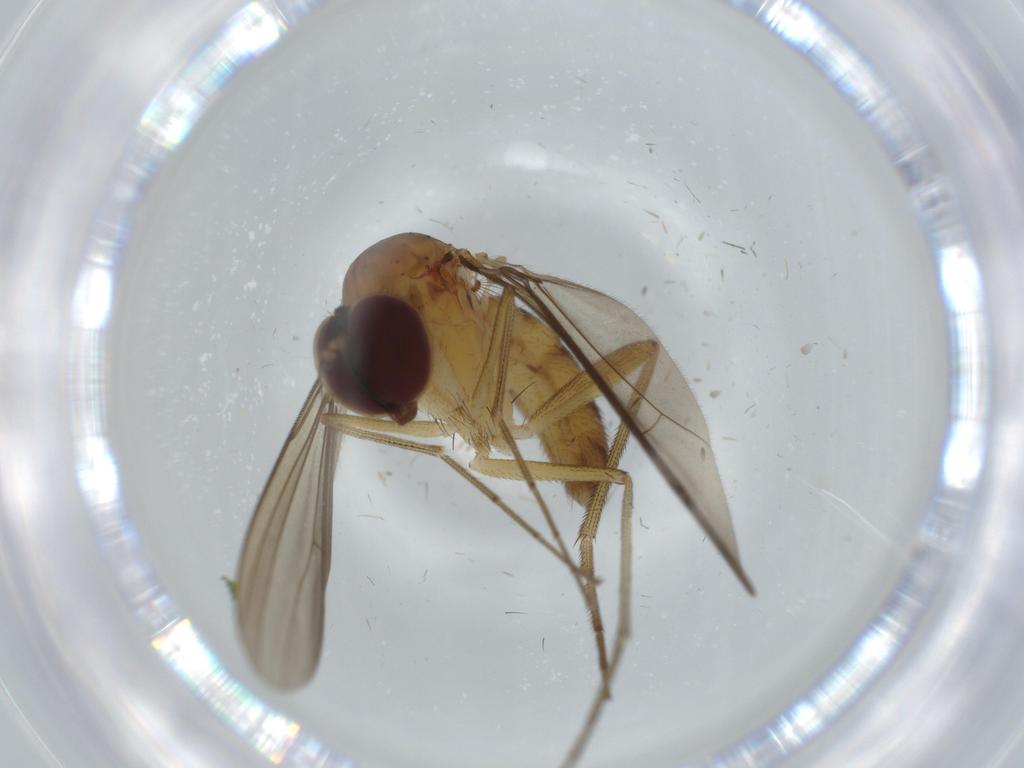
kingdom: Animalia
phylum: Arthropoda
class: Insecta
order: Diptera
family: Dolichopodidae
